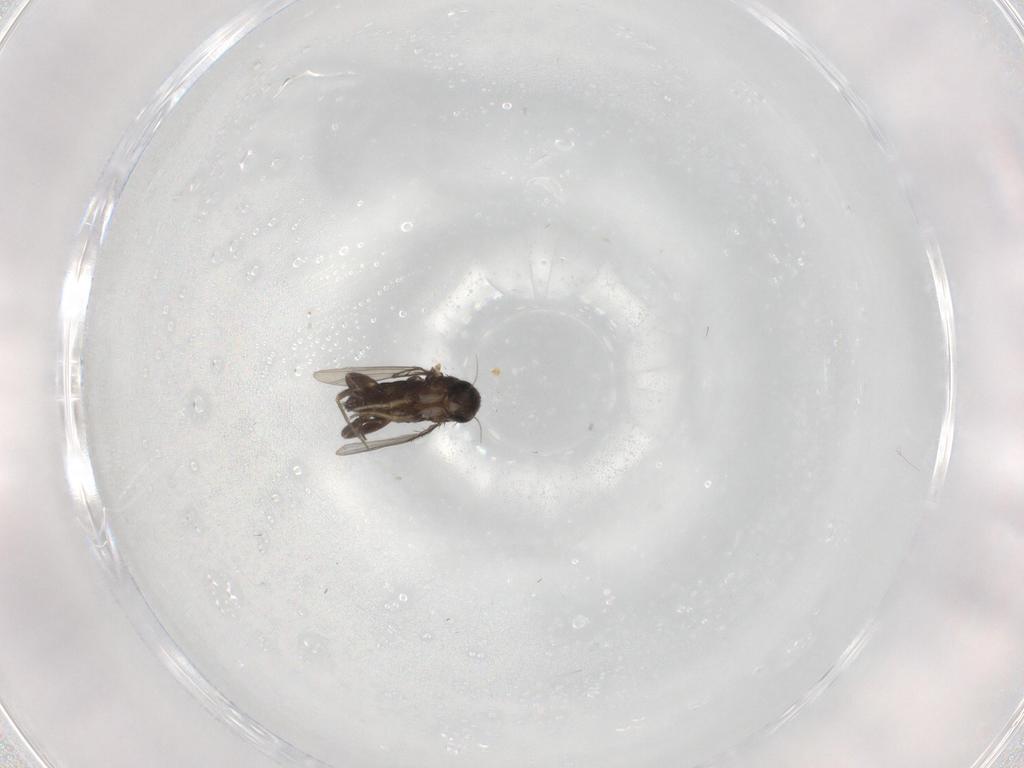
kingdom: Animalia
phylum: Arthropoda
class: Insecta
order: Diptera
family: Phoridae
